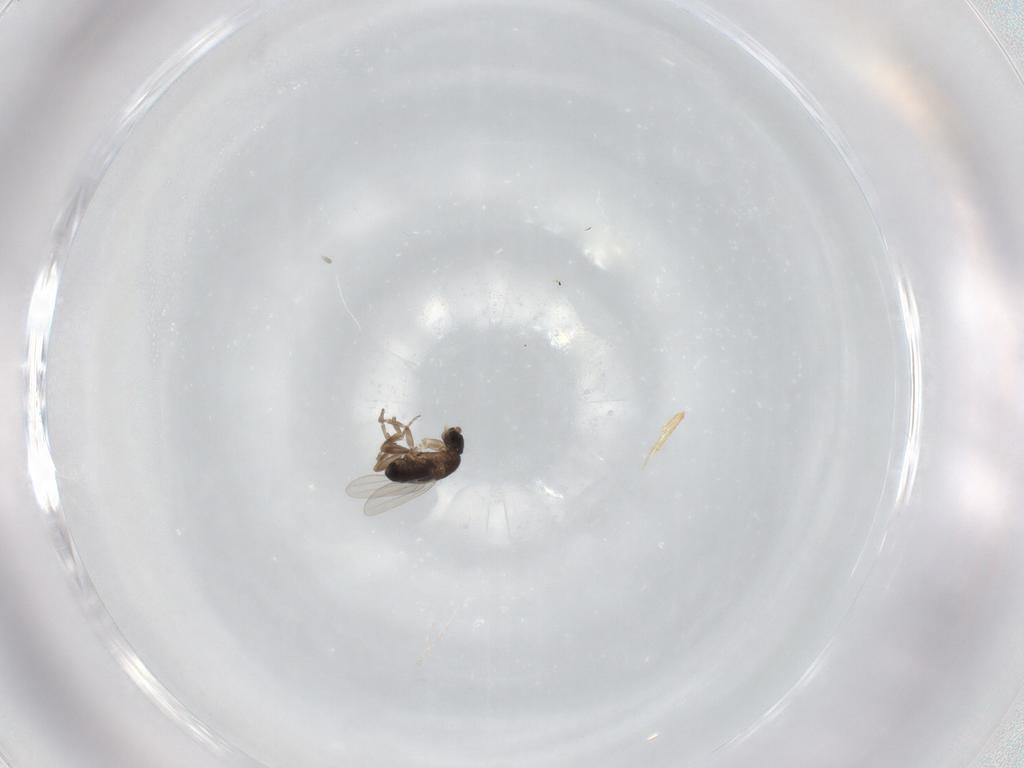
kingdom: Animalia
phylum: Arthropoda
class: Insecta
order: Diptera
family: Phoridae
